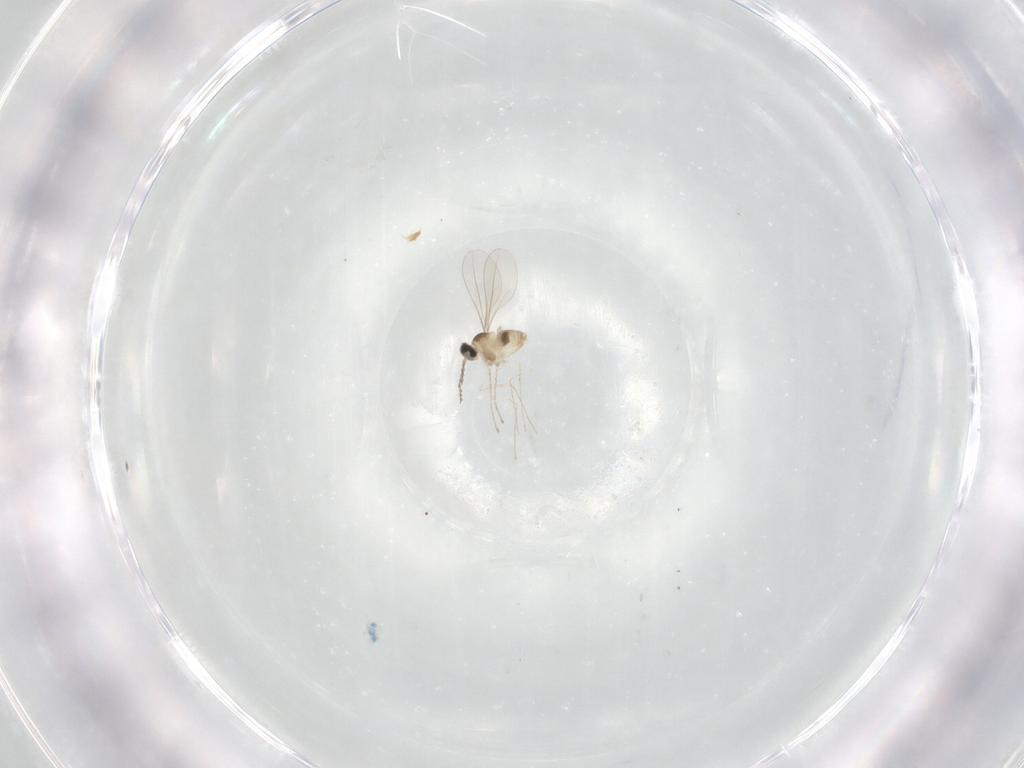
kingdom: Animalia
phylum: Arthropoda
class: Insecta
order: Diptera
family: Cecidomyiidae
